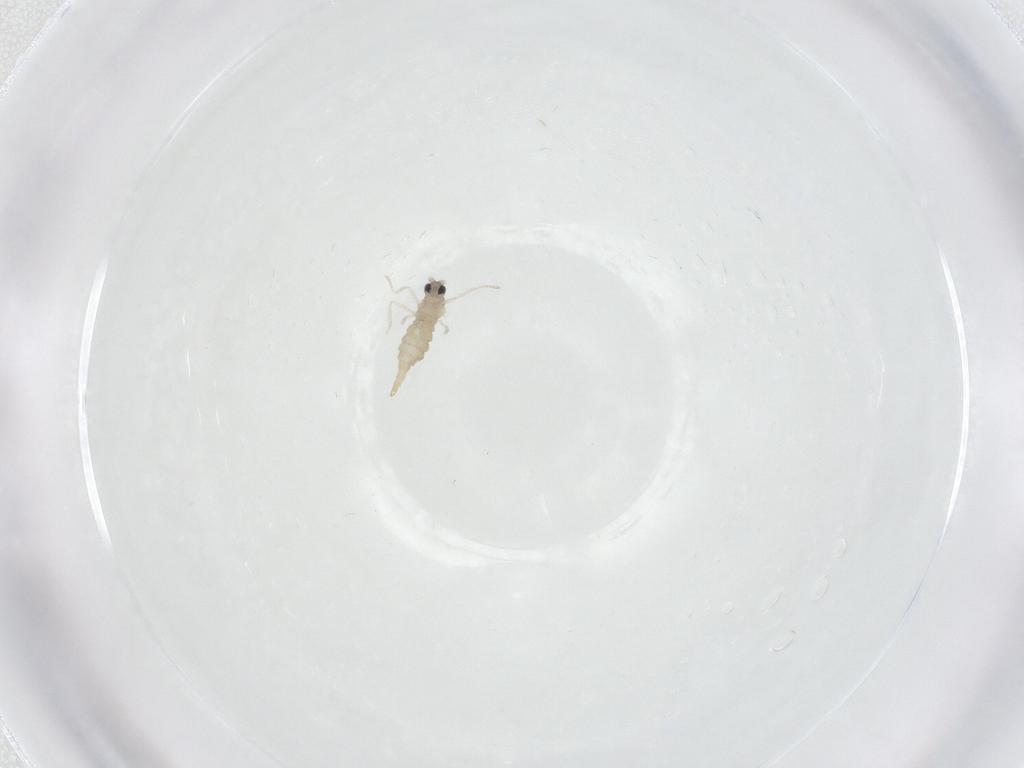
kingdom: Animalia
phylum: Arthropoda
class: Insecta
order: Diptera
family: Cecidomyiidae
